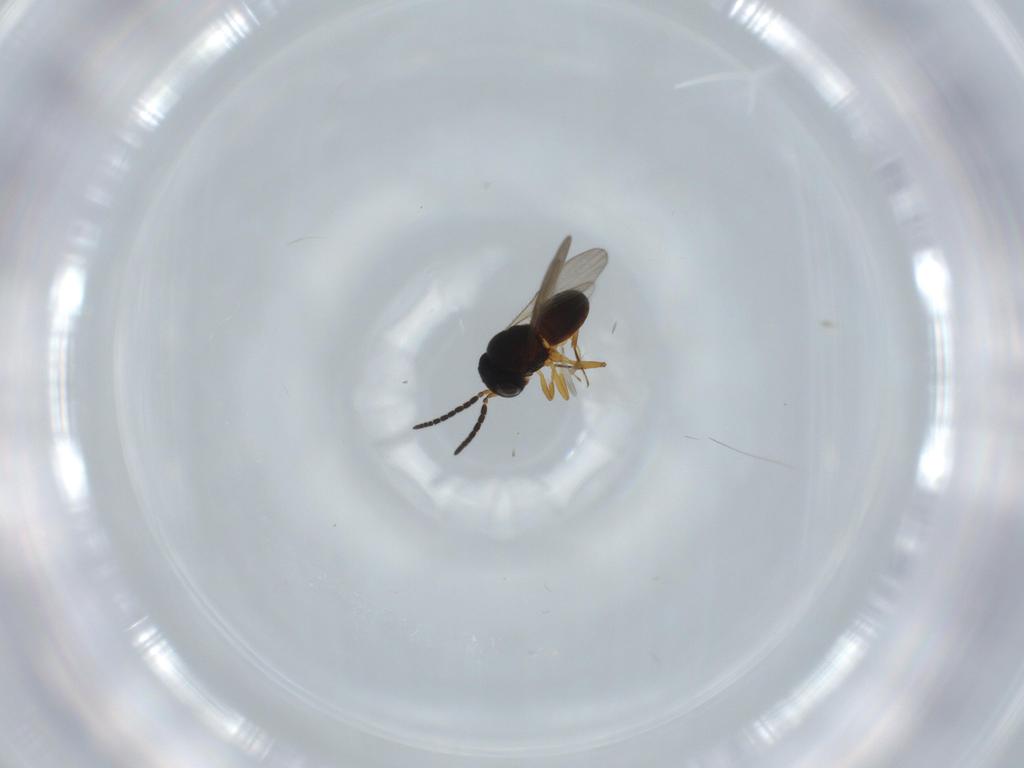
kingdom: Animalia
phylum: Arthropoda
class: Insecta
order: Hymenoptera
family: Scelionidae
